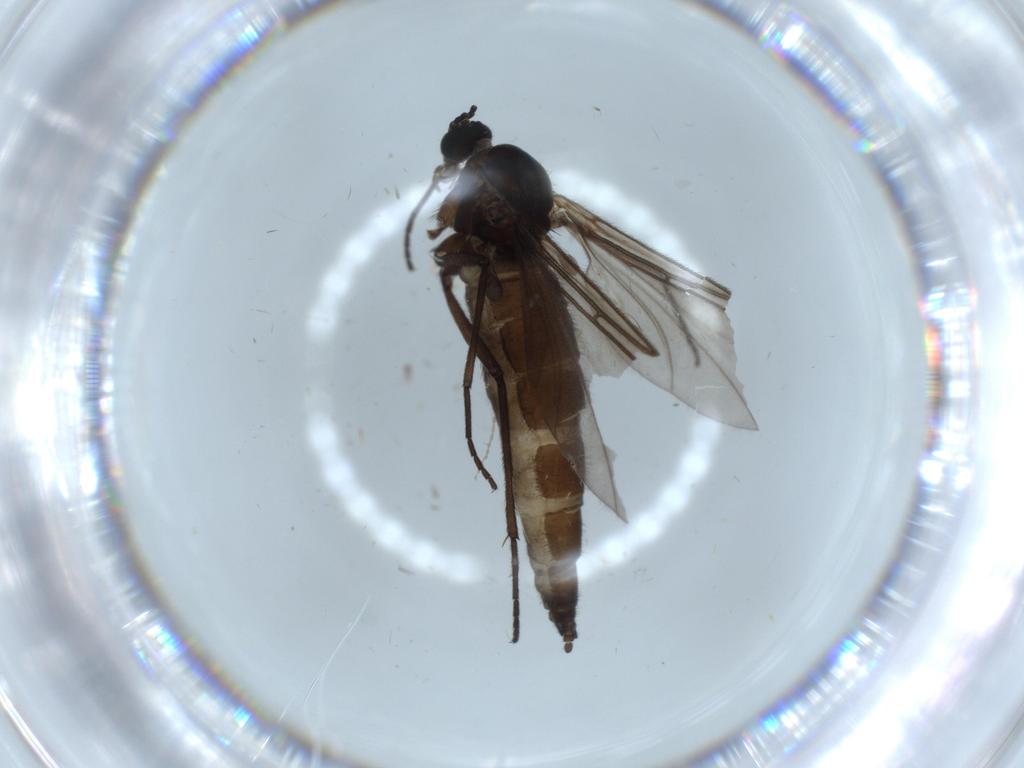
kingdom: Animalia
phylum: Arthropoda
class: Insecta
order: Diptera
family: Sciaridae
